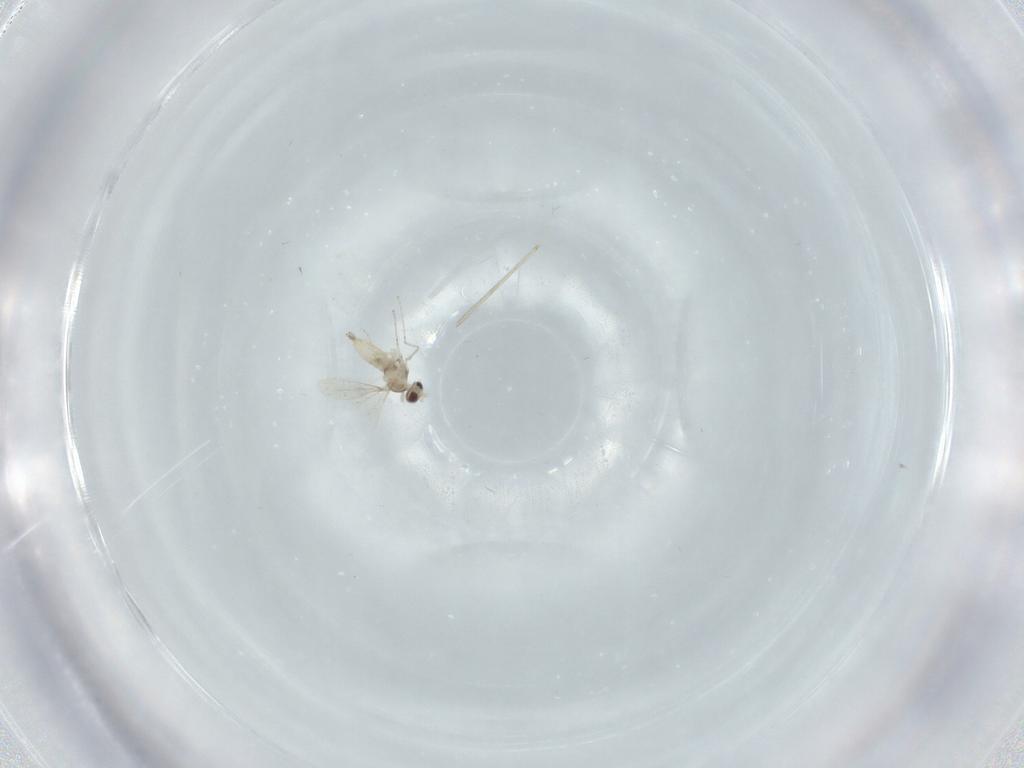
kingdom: Animalia
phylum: Arthropoda
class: Insecta
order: Diptera
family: Cecidomyiidae
